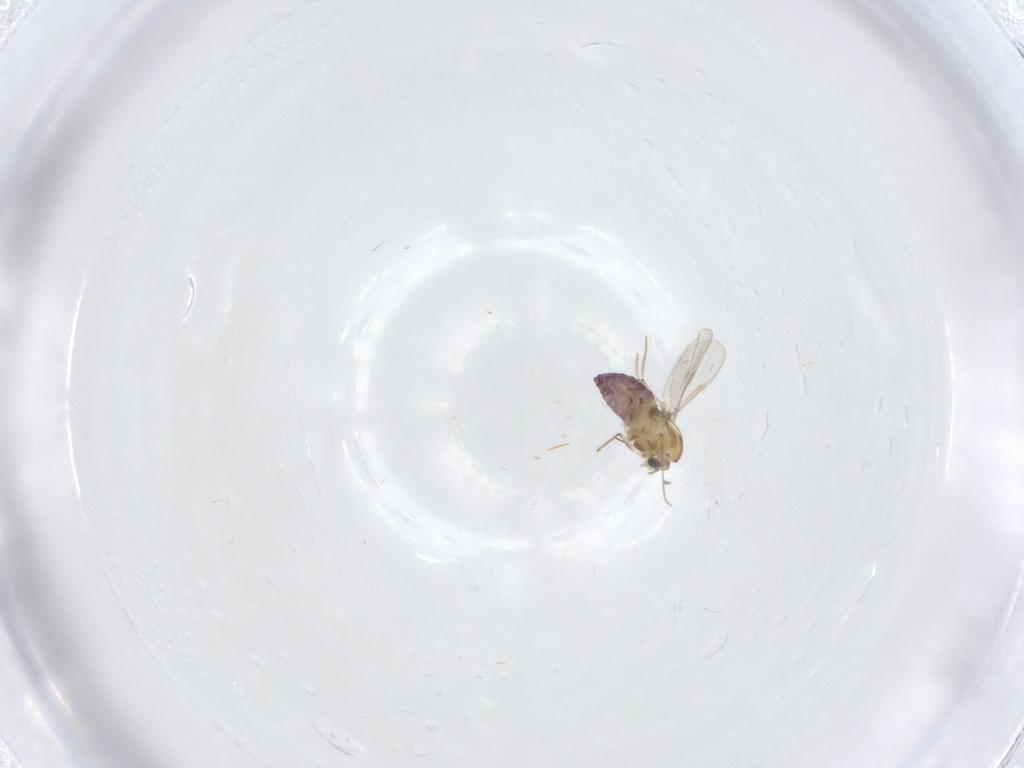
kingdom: Animalia
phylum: Arthropoda
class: Insecta
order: Diptera
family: Chironomidae
